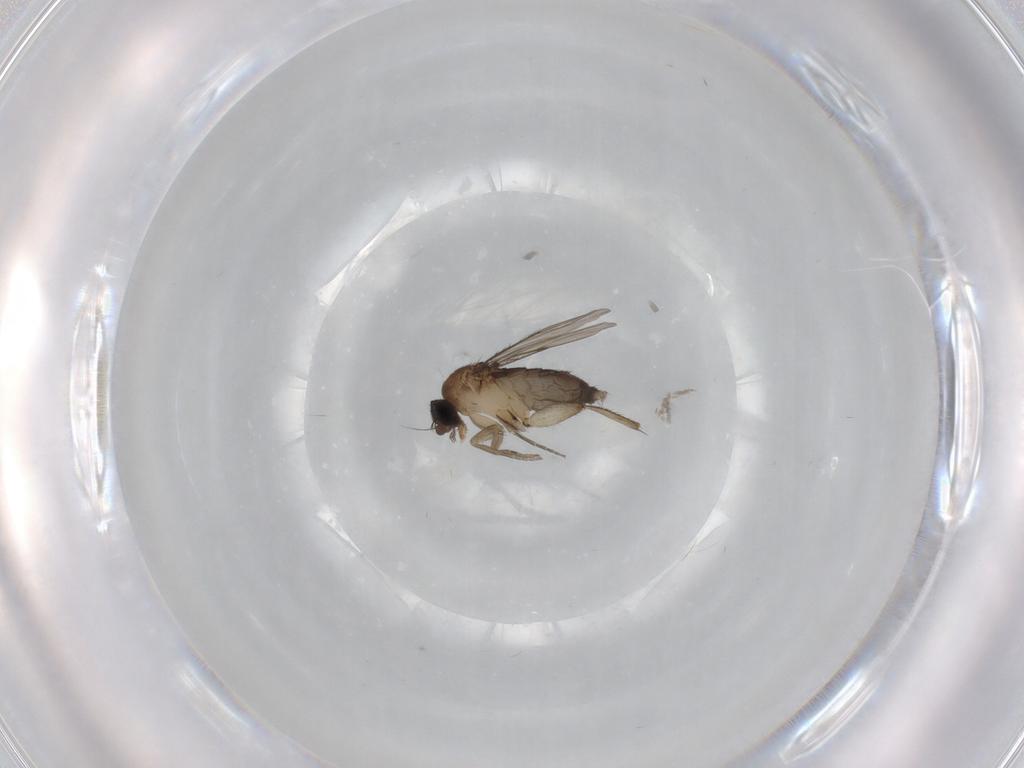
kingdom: Animalia
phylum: Arthropoda
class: Insecta
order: Diptera
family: Phoridae
